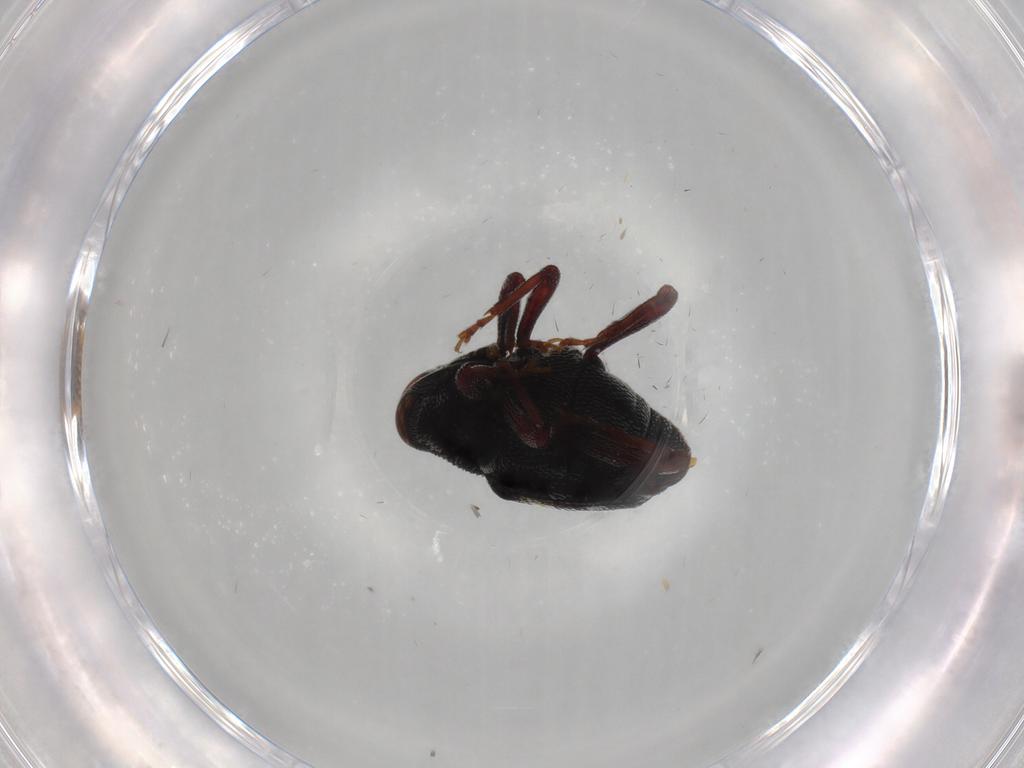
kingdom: Animalia
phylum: Arthropoda
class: Insecta
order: Coleoptera
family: Curculionidae
